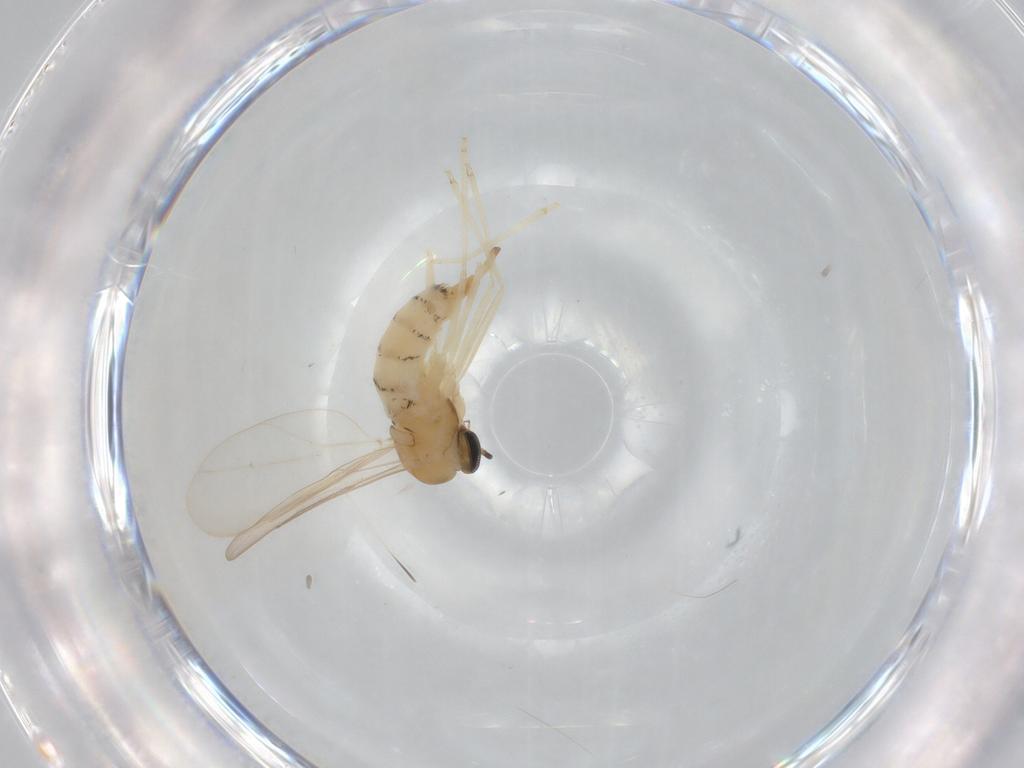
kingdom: Animalia
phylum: Arthropoda
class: Insecta
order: Diptera
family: Cecidomyiidae
